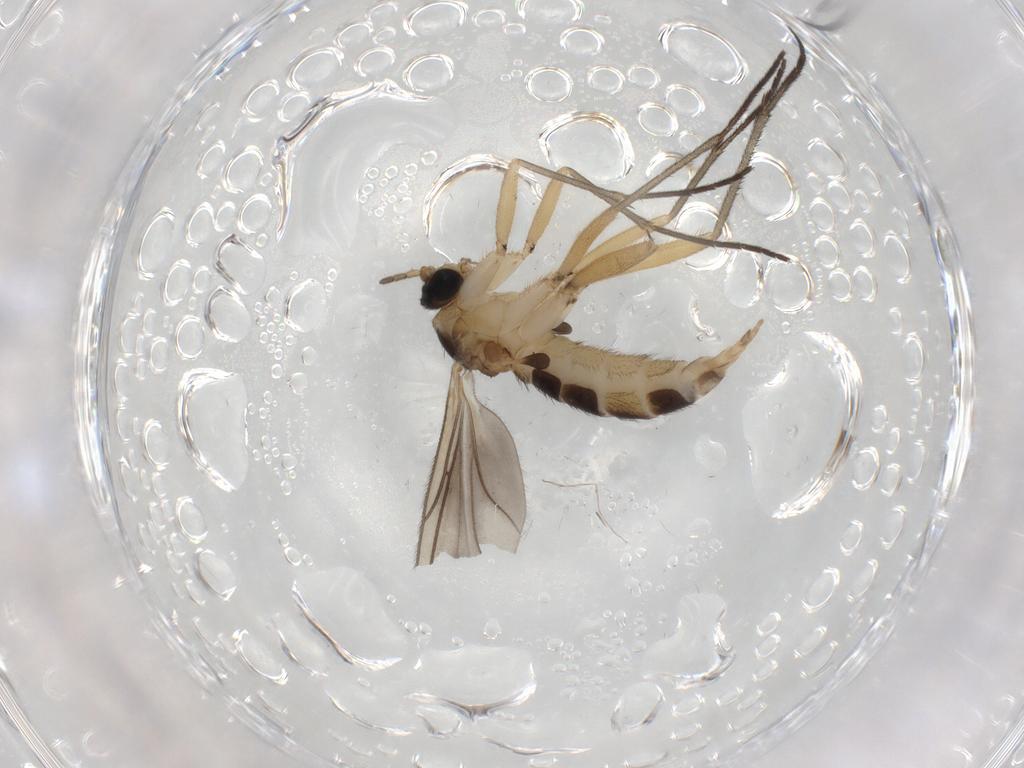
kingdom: Animalia
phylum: Arthropoda
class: Insecta
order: Diptera
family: Sciaridae
